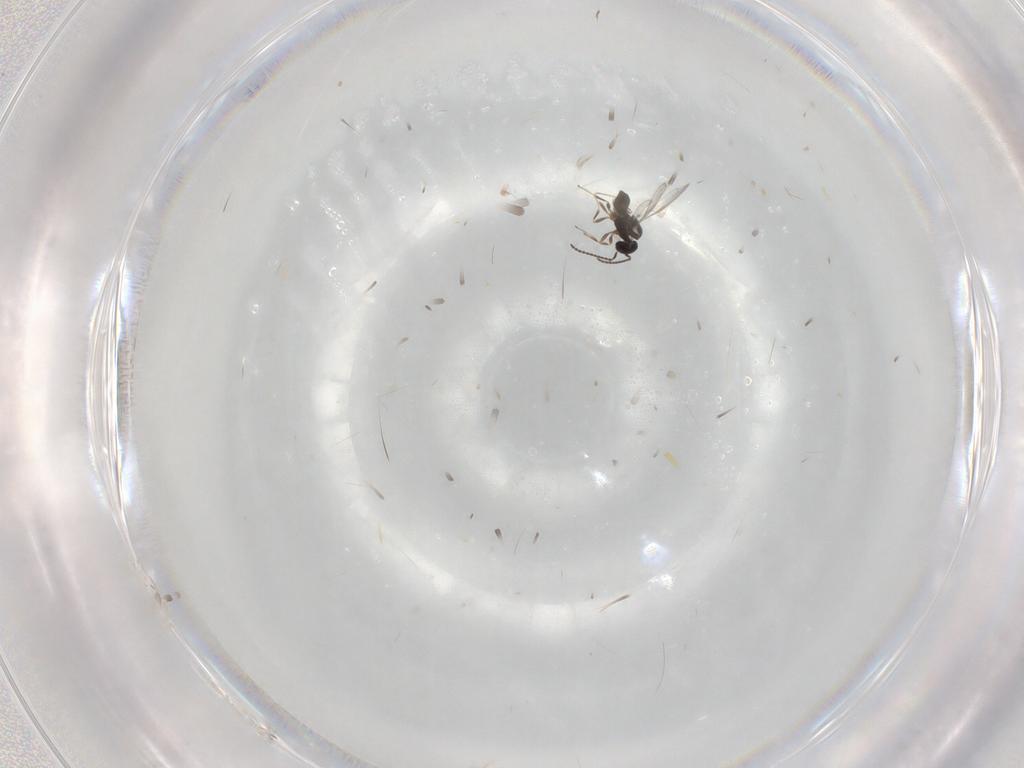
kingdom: Animalia
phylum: Arthropoda
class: Insecta
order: Hymenoptera
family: Scelionidae
